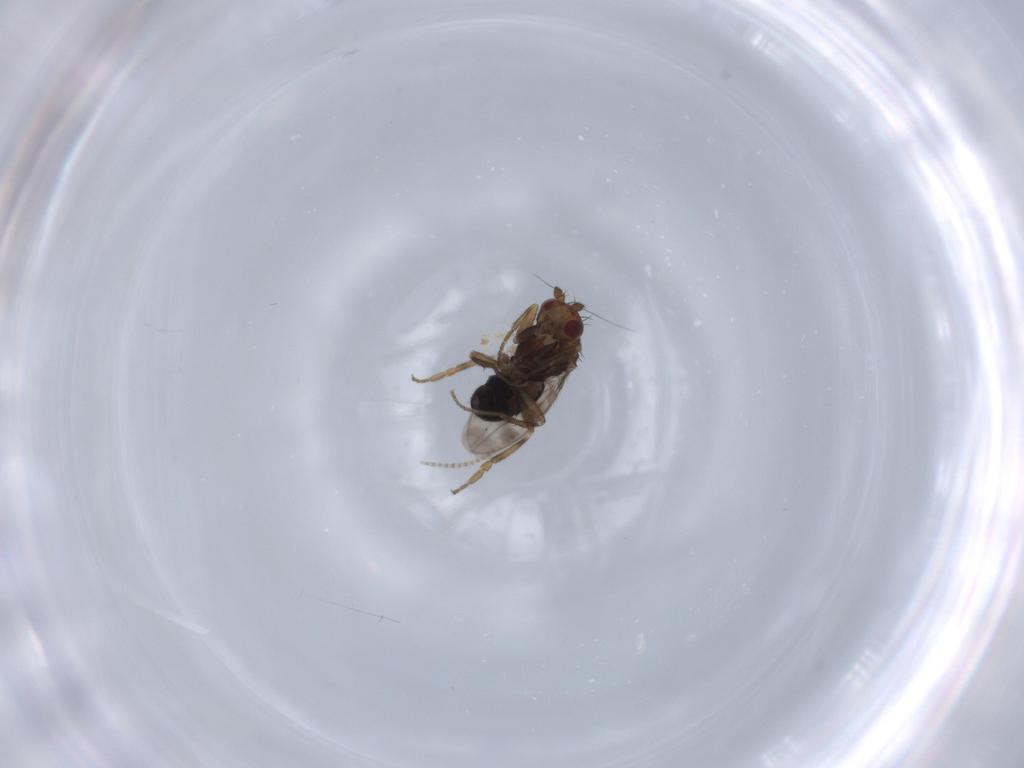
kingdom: Animalia
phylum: Arthropoda
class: Insecta
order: Diptera
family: Sphaeroceridae
